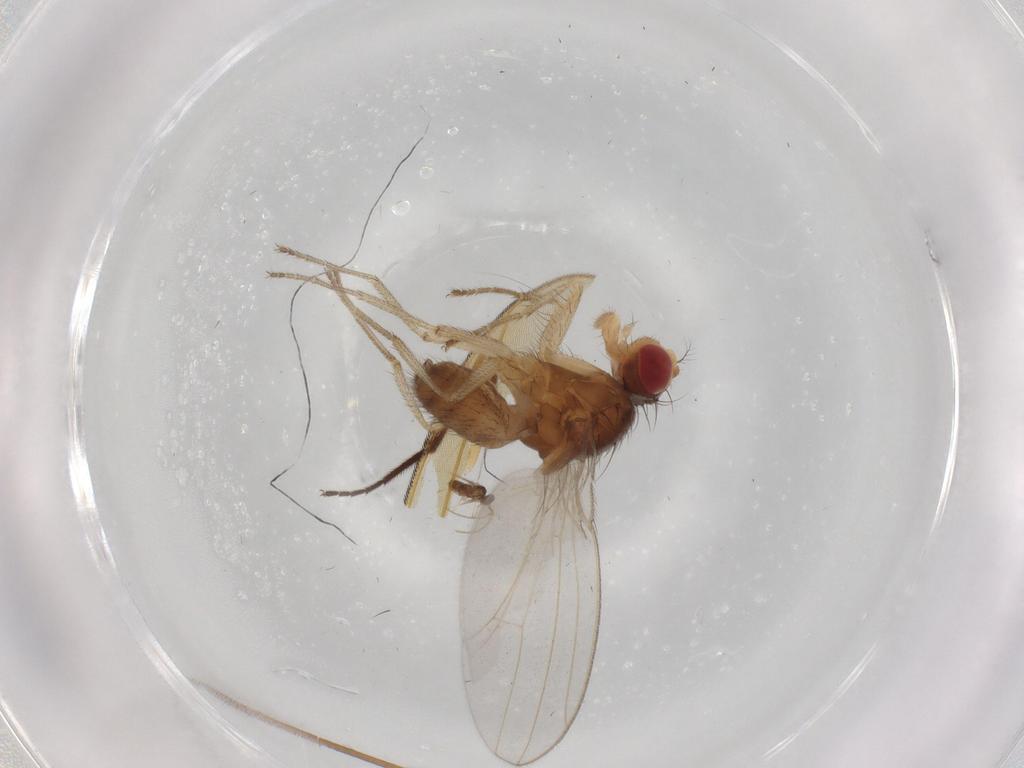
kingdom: Animalia
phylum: Arthropoda
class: Insecta
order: Diptera
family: Drosophilidae
